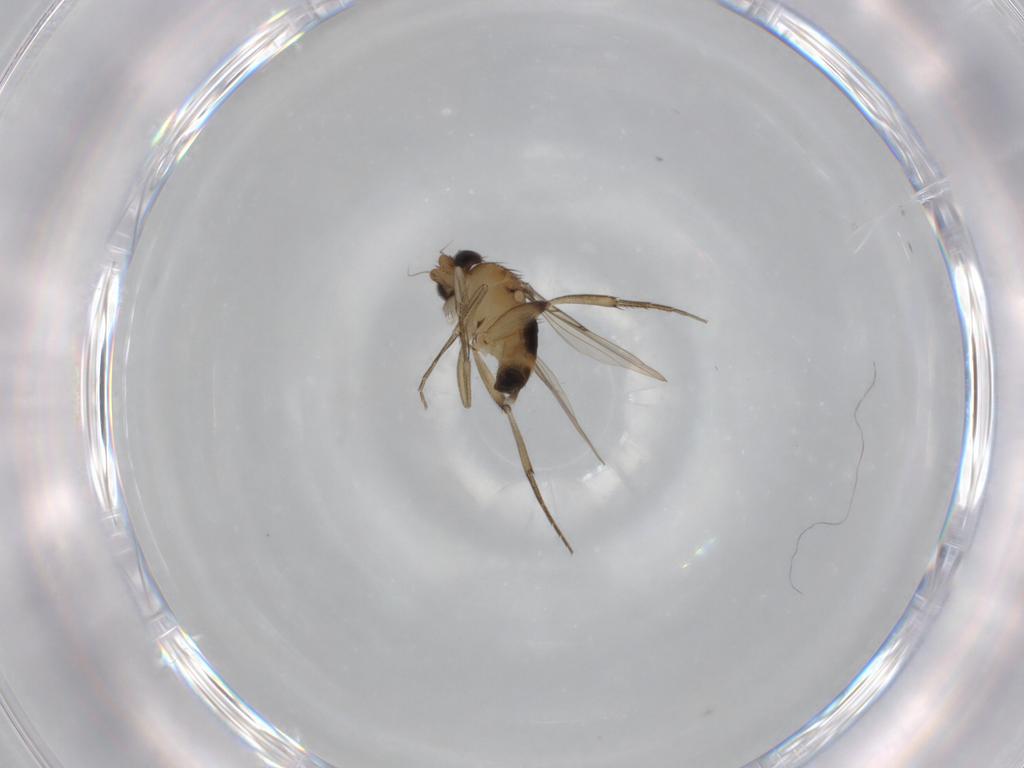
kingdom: Animalia
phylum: Arthropoda
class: Insecta
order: Diptera
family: Phoridae
